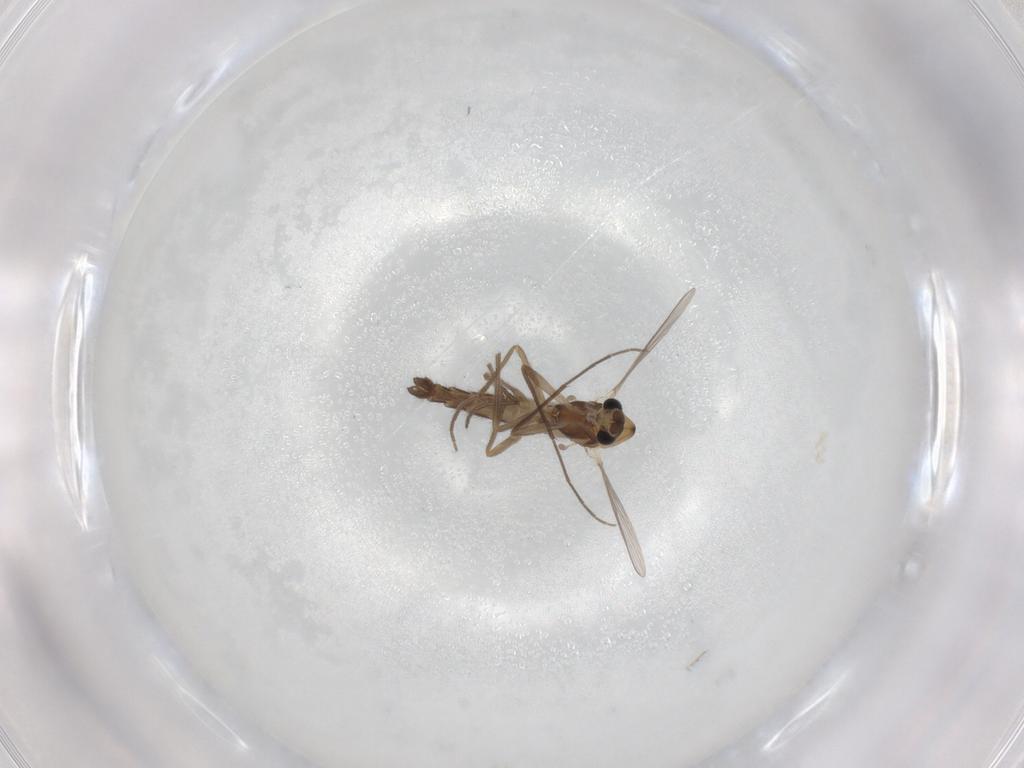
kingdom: Animalia
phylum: Arthropoda
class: Insecta
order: Diptera
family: Chironomidae
